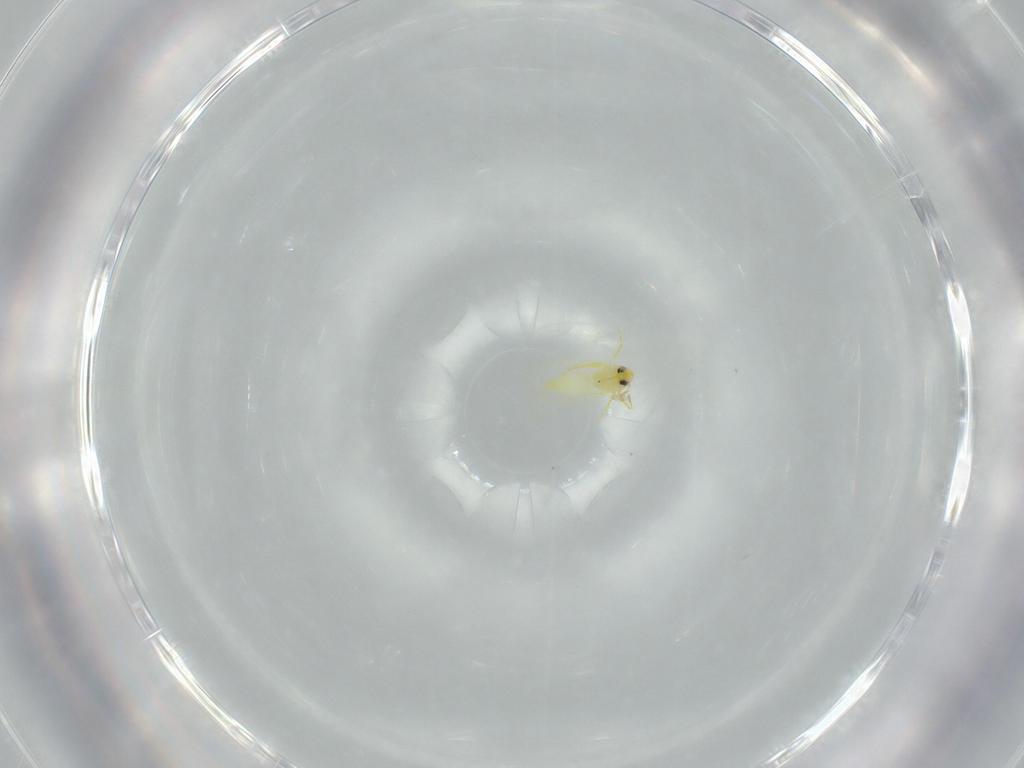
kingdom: Animalia
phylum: Arthropoda
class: Insecta
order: Hemiptera
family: Aleyrodidae
